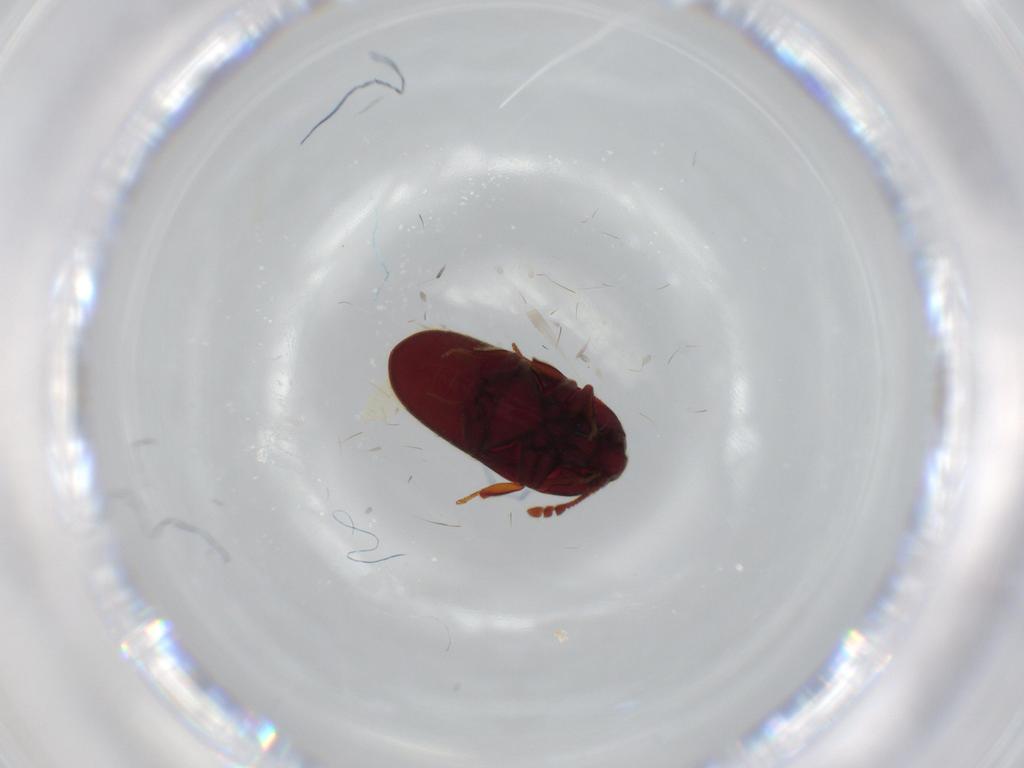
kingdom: Animalia
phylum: Arthropoda
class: Insecta
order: Coleoptera
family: Throscidae
